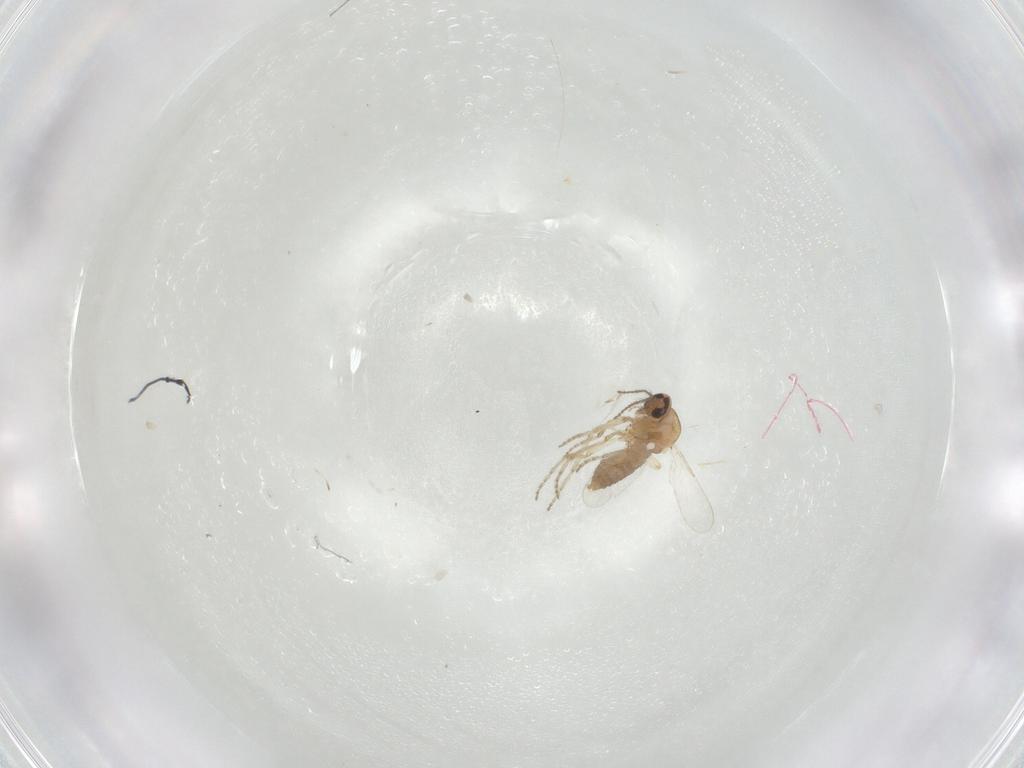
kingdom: Animalia
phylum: Arthropoda
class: Insecta
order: Diptera
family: Ceratopogonidae
